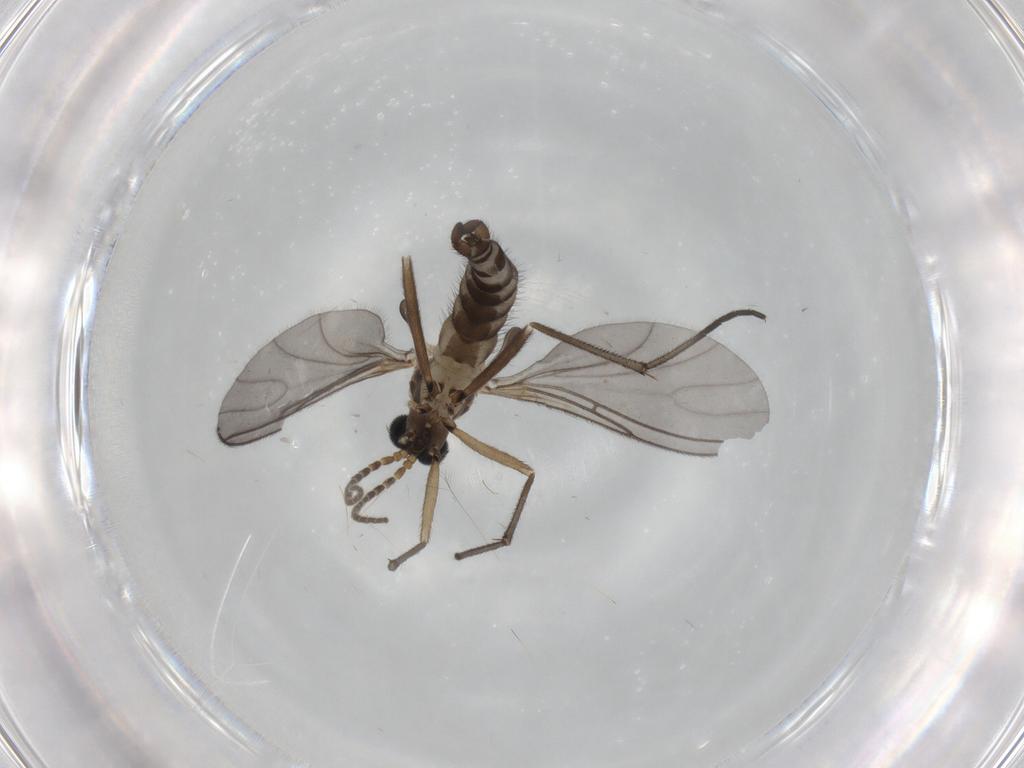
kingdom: Animalia
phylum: Arthropoda
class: Insecta
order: Diptera
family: Sciaridae
